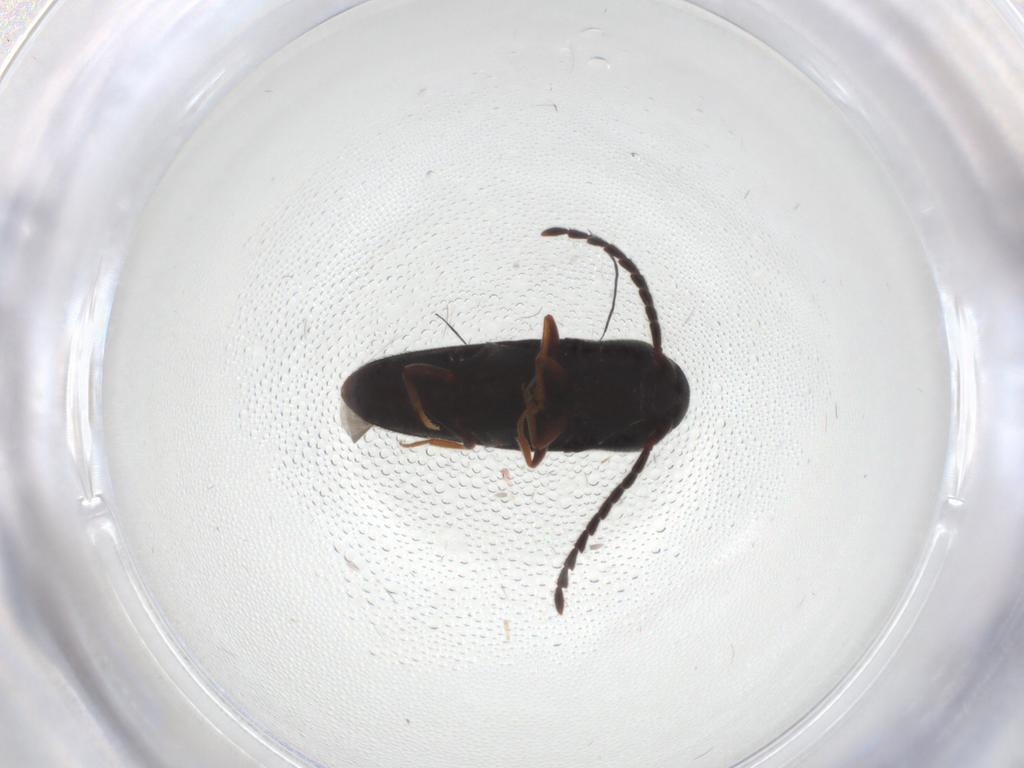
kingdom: Animalia
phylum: Arthropoda
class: Insecta
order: Coleoptera
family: Eucnemidae
